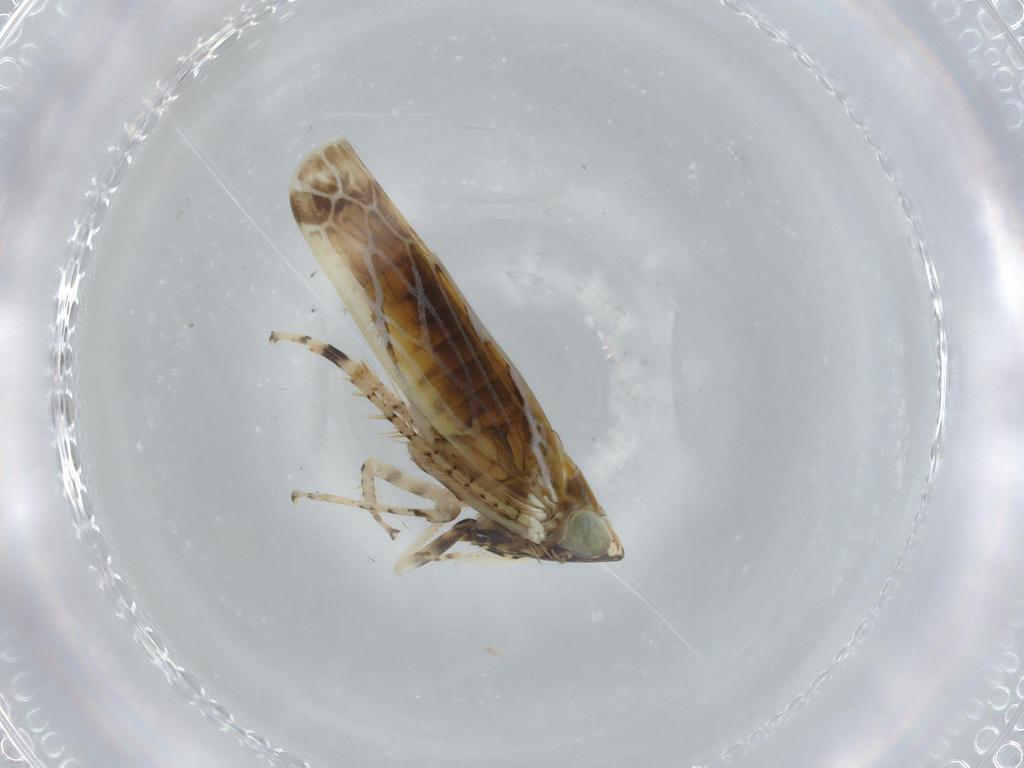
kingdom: Animalia
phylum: Arthropoda
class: Insecta
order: Hemiptera
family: Cicadellidae
